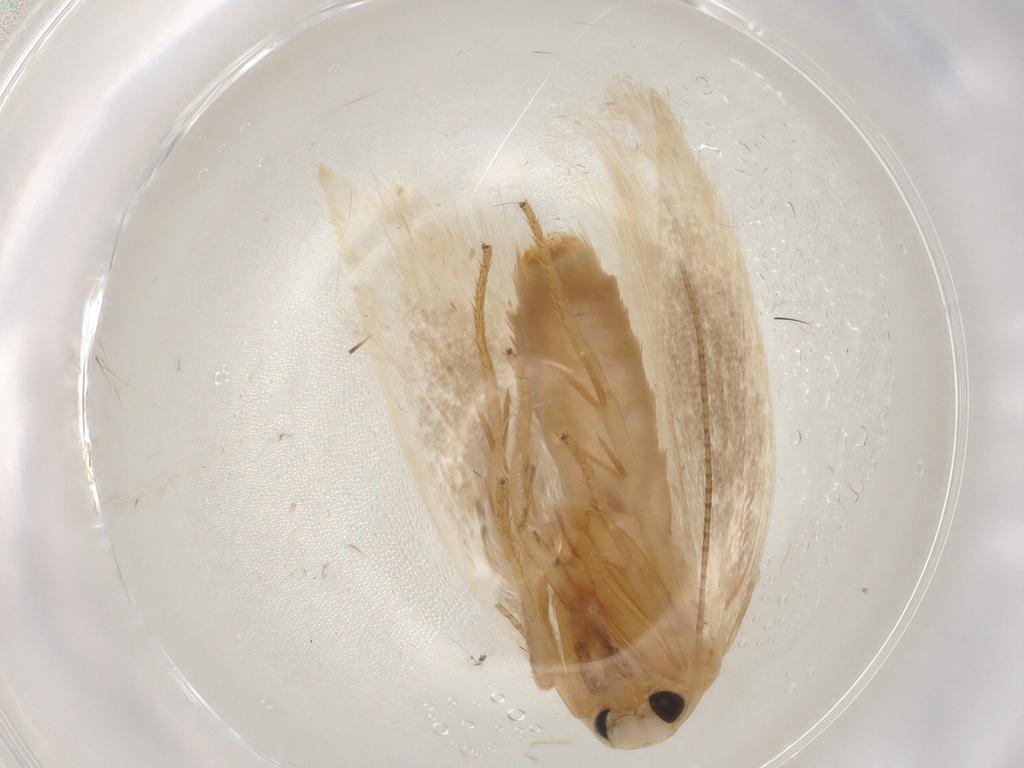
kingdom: Animalia
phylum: Arthropoda
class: Insecta
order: Lepidoptera
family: Geometridae
